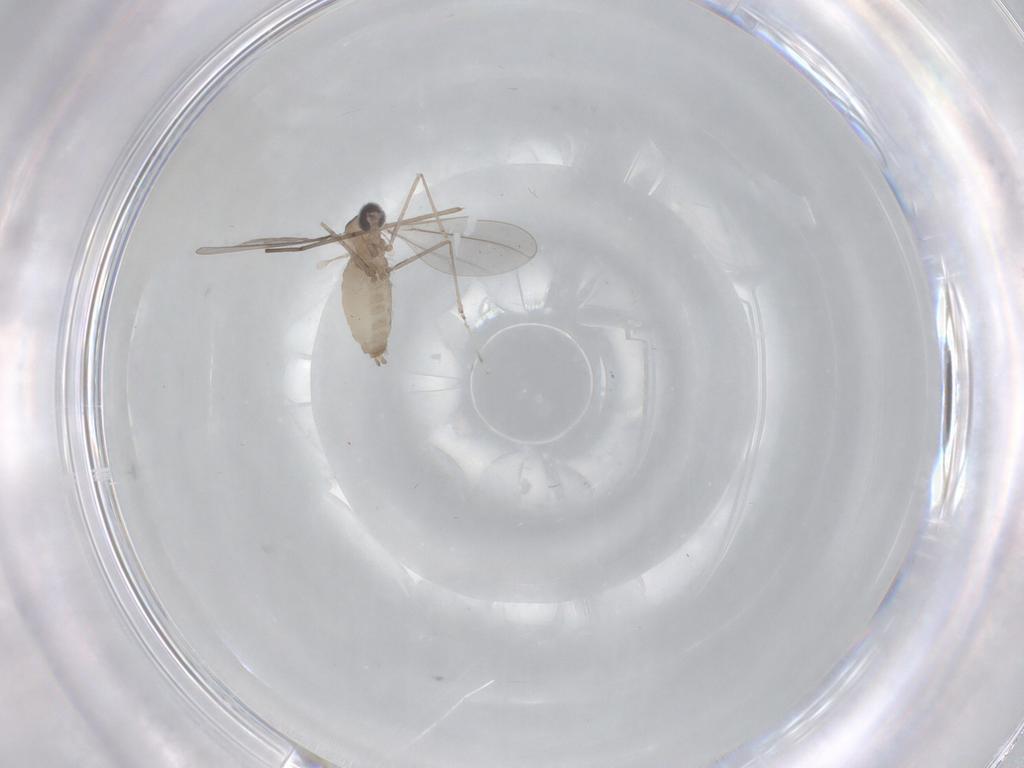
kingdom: Animalia
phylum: Arthropoda
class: Insecta
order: Diptera
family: Cecidomyiidae
